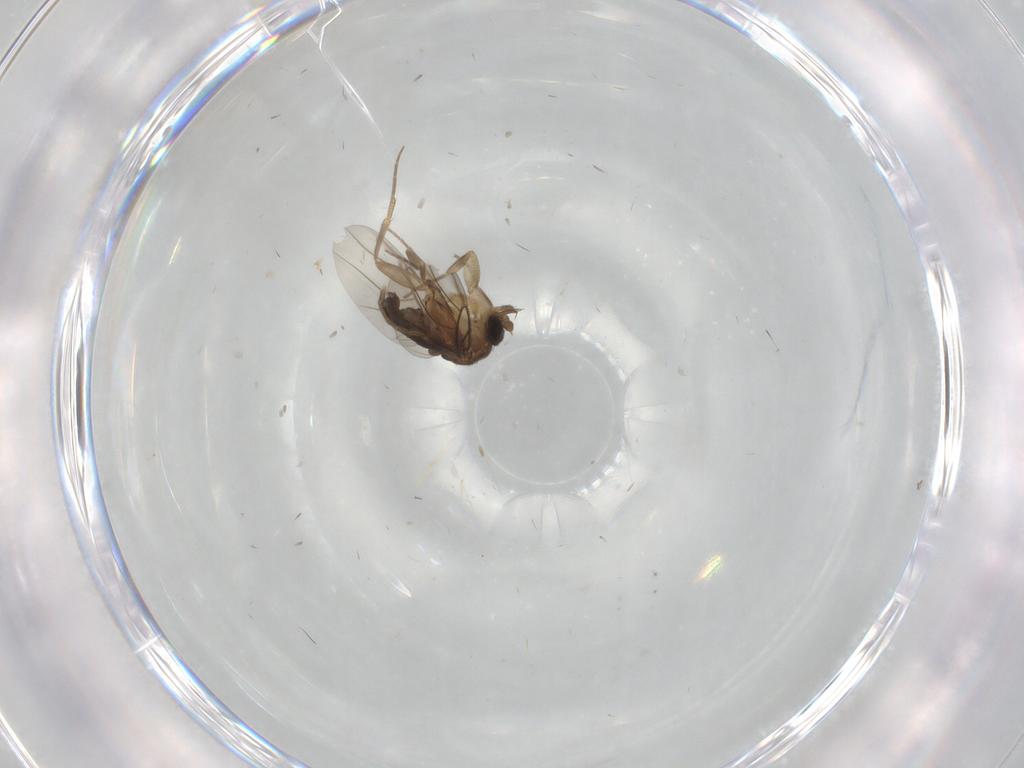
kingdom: Animalia
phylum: Arthropoda
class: Insecta
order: Diptera
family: Phoridae
